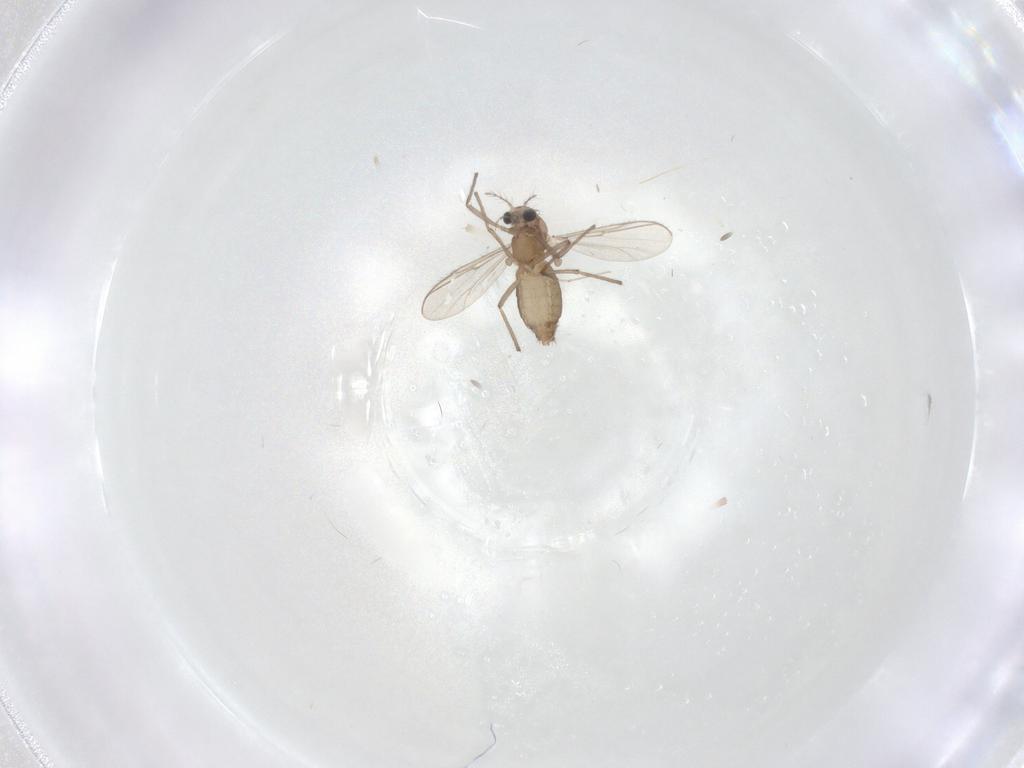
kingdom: Animalia
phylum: Arthropoda
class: Insecta
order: Diptera
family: Chironomidae
